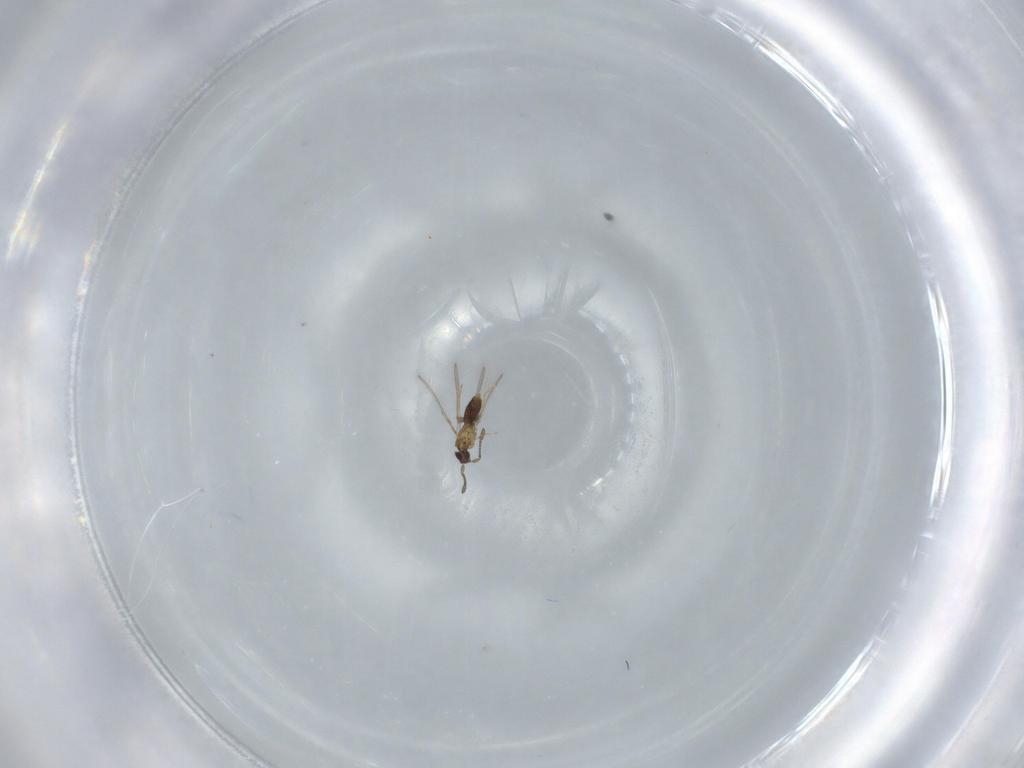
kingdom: Animalia
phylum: Arthropoda
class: Insecta
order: Hymenoptera
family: Mymaridae
